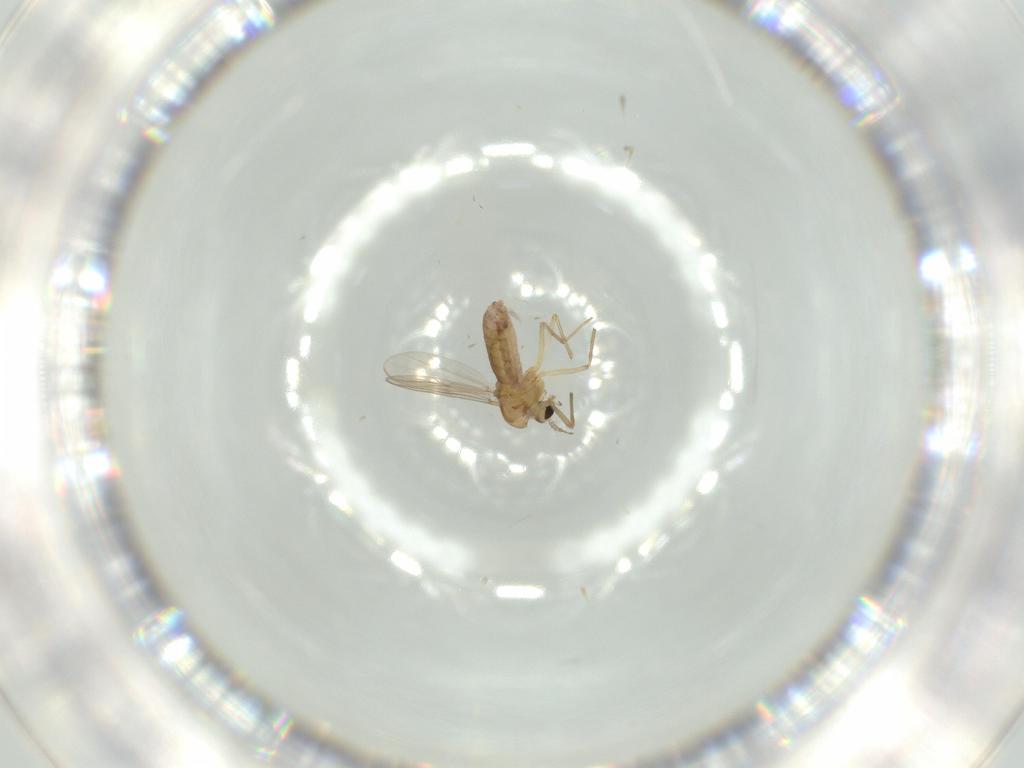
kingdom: Animalia
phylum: Arthropoda
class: Insecta
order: Diptera
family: Chironomidae
